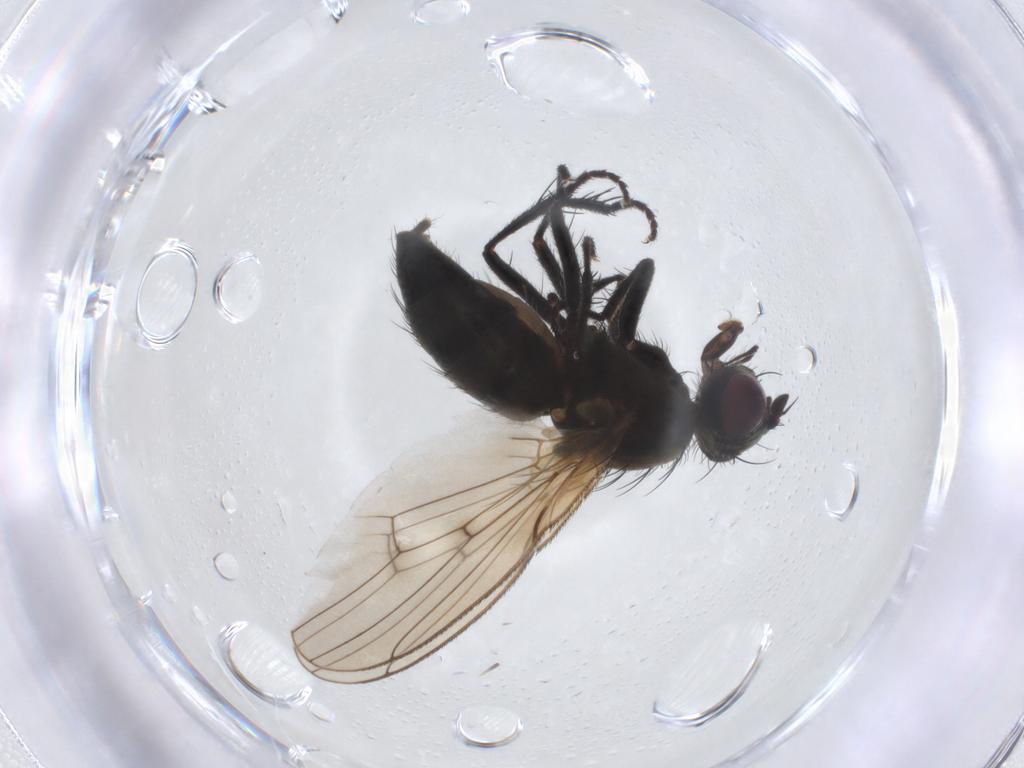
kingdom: Animalia
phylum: Arthropoda
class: Insecta
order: Diptera
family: Muscidae
